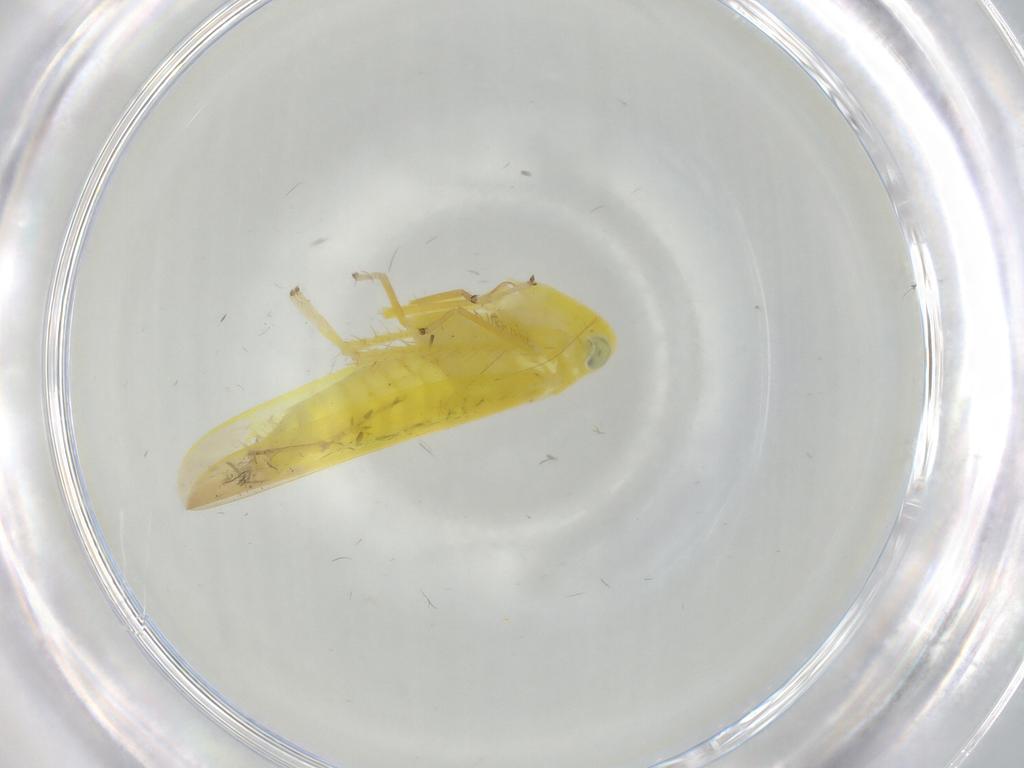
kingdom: Animalia
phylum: Arthropoda
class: Insecta
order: Hemiptera
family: Cicadellidae
